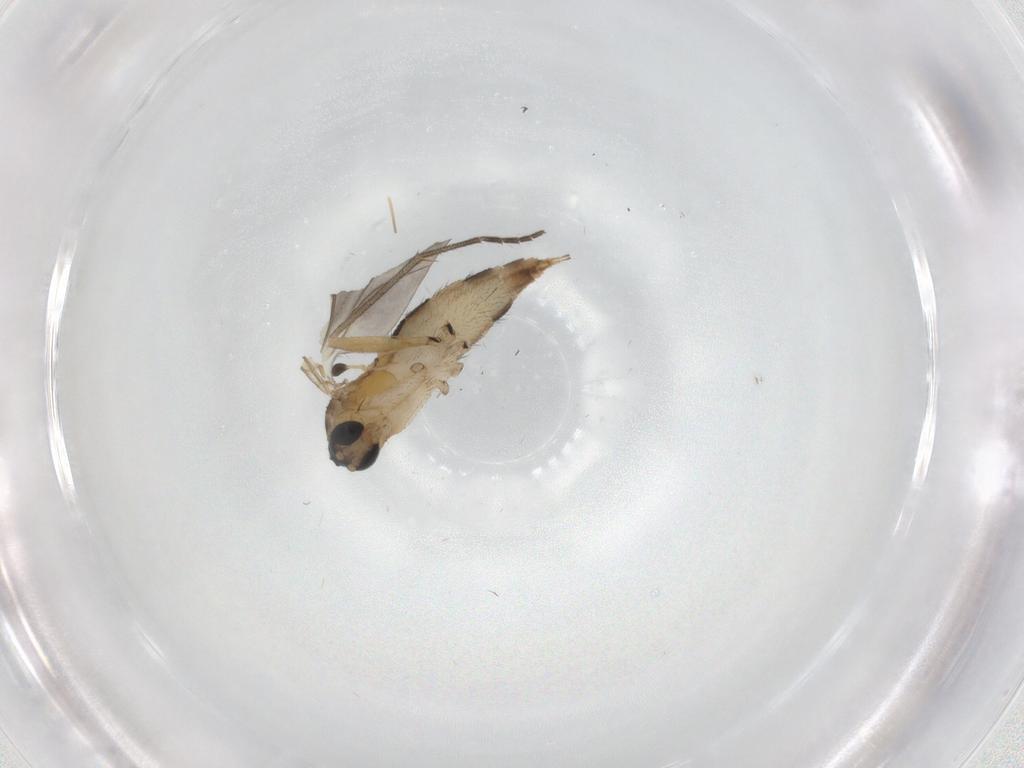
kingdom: Animalia
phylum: Arthropoda
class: Insecta
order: Diptera
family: Sciaridae
